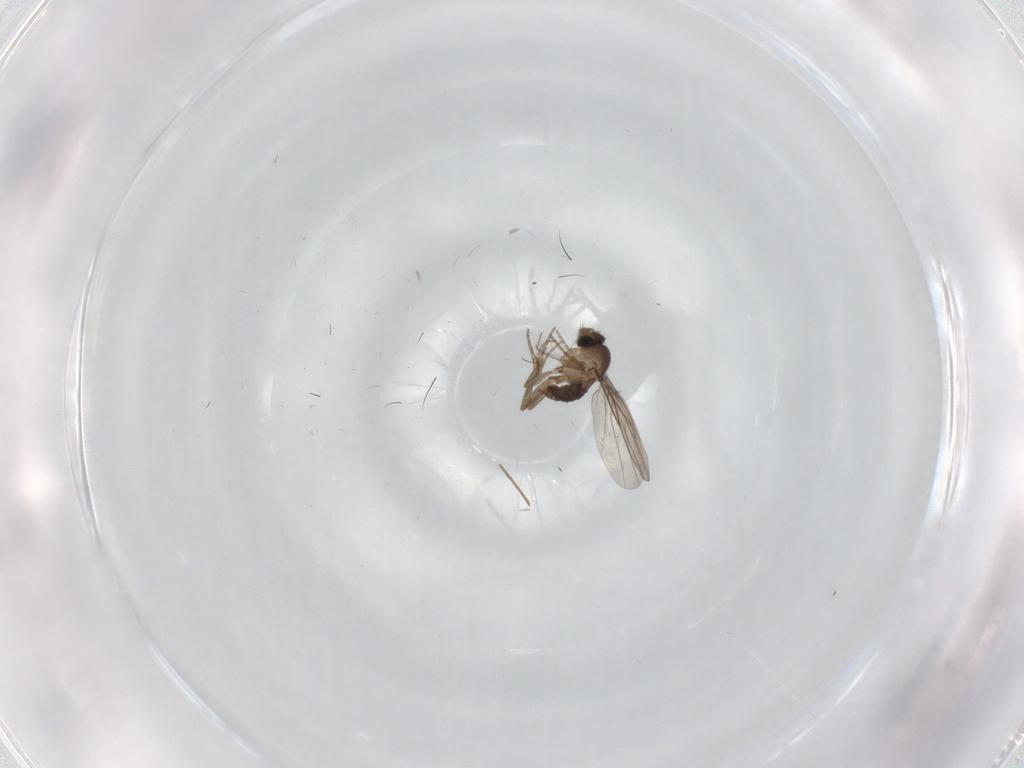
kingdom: Animalia
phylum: Arthropoda
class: Insecta
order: Diptera
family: Ceratopogonidae
